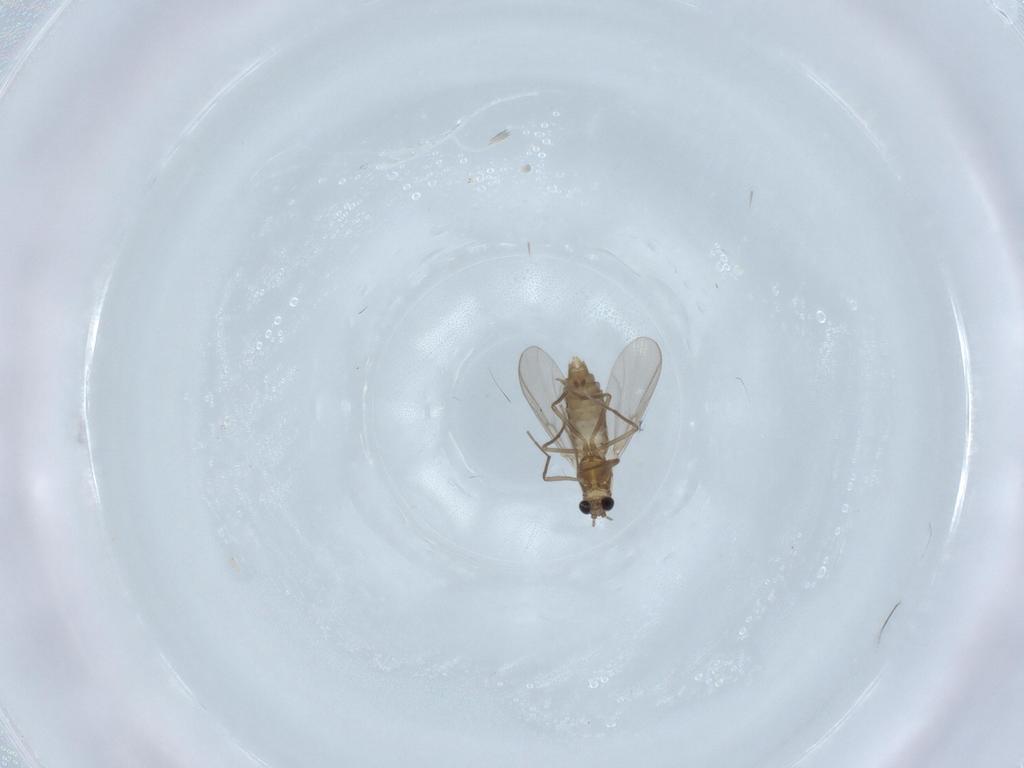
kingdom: Animalia
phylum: Arthropoda
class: Insecta
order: Diptera
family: Chironomidae
